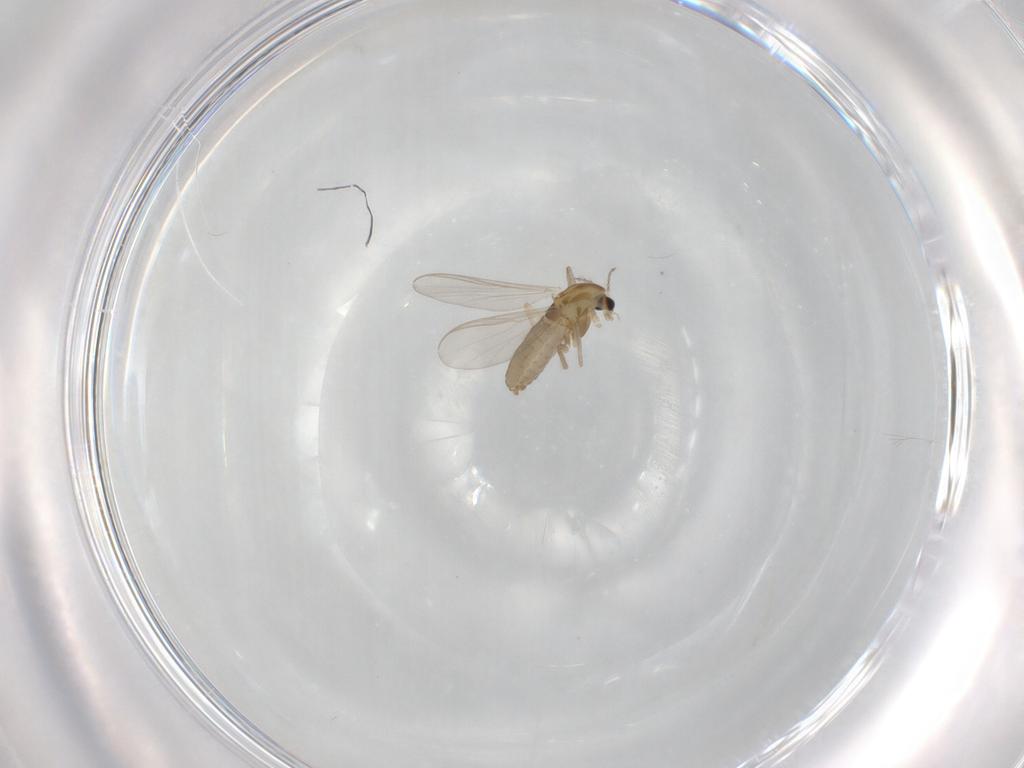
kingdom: Animalia
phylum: Arthropoda
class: Insecta
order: Diptera
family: Chironomidae
